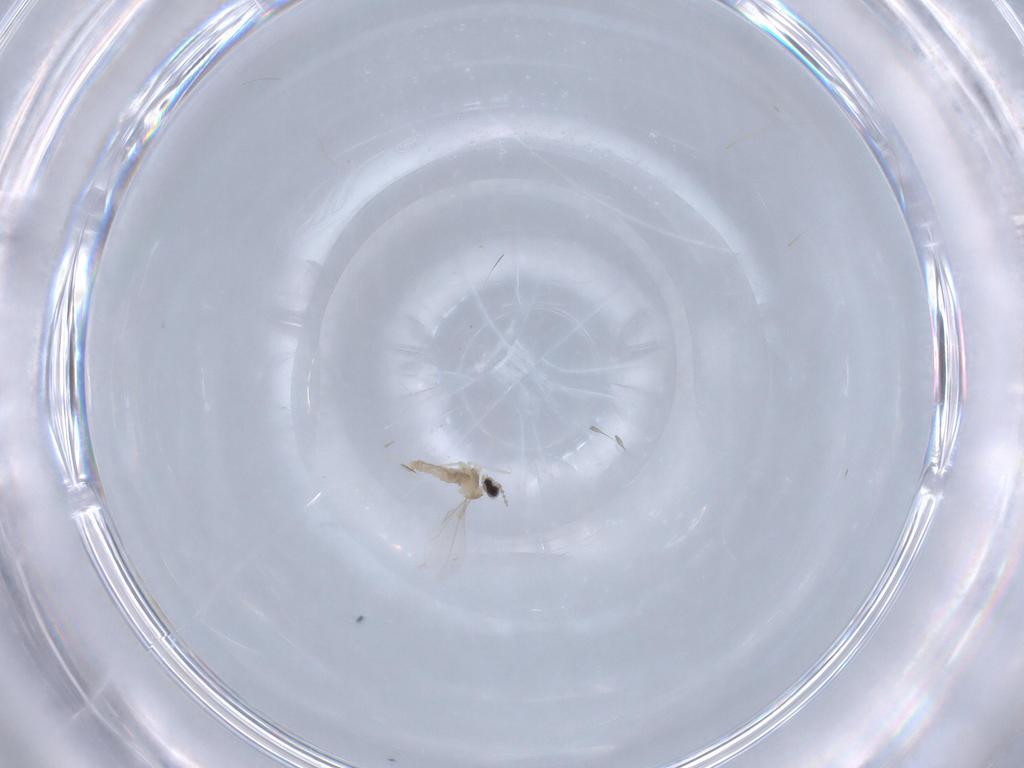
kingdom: Animalia
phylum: Arthropoda
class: Insecta
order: Diptera
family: Cecidomyiidae
